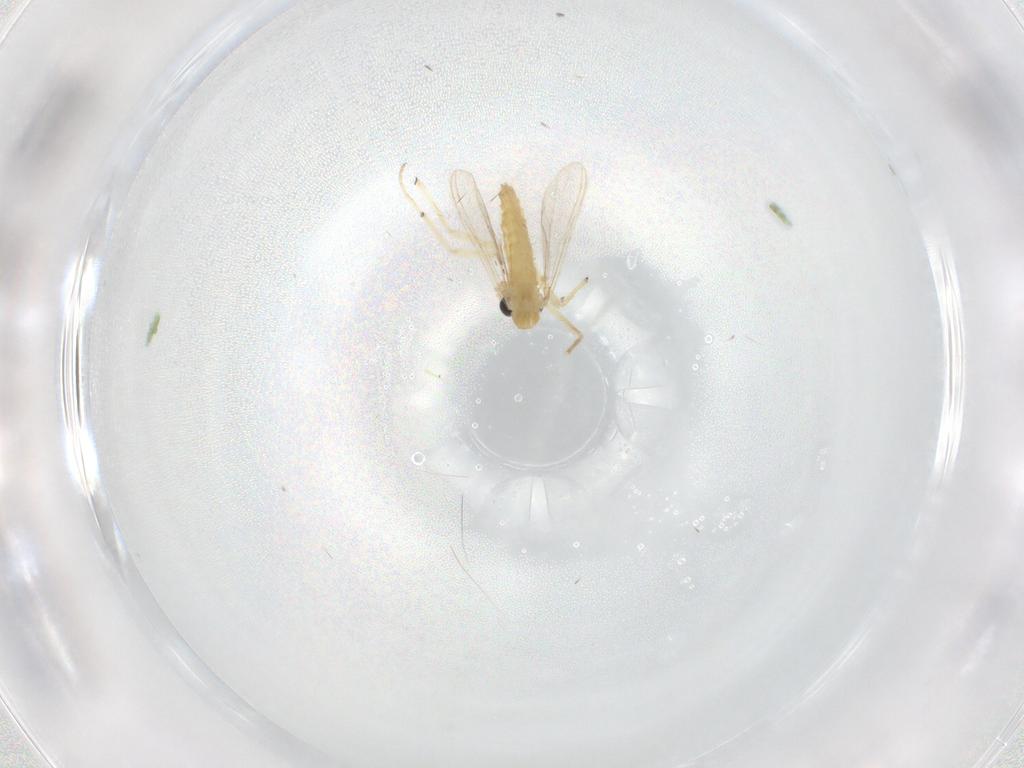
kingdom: Animalia
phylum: Arthropoda
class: Insecta
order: Diptera
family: Chironomidae
